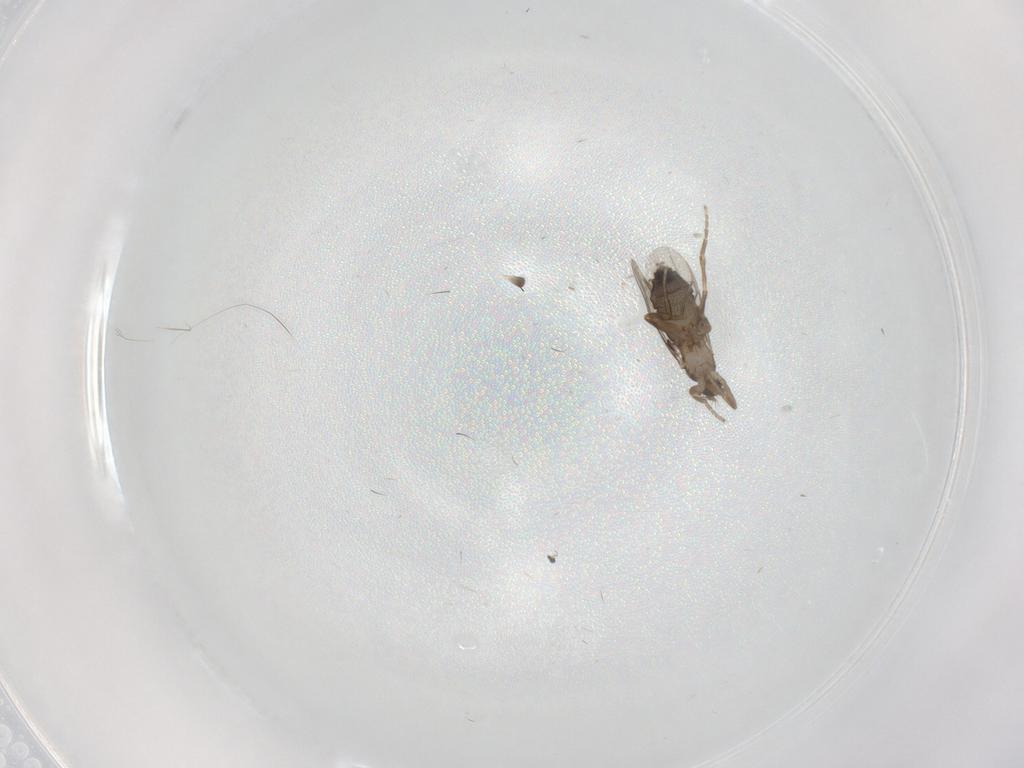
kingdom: Animalia
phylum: Arthropoda
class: Insecta
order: Diptera
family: Phoridae
